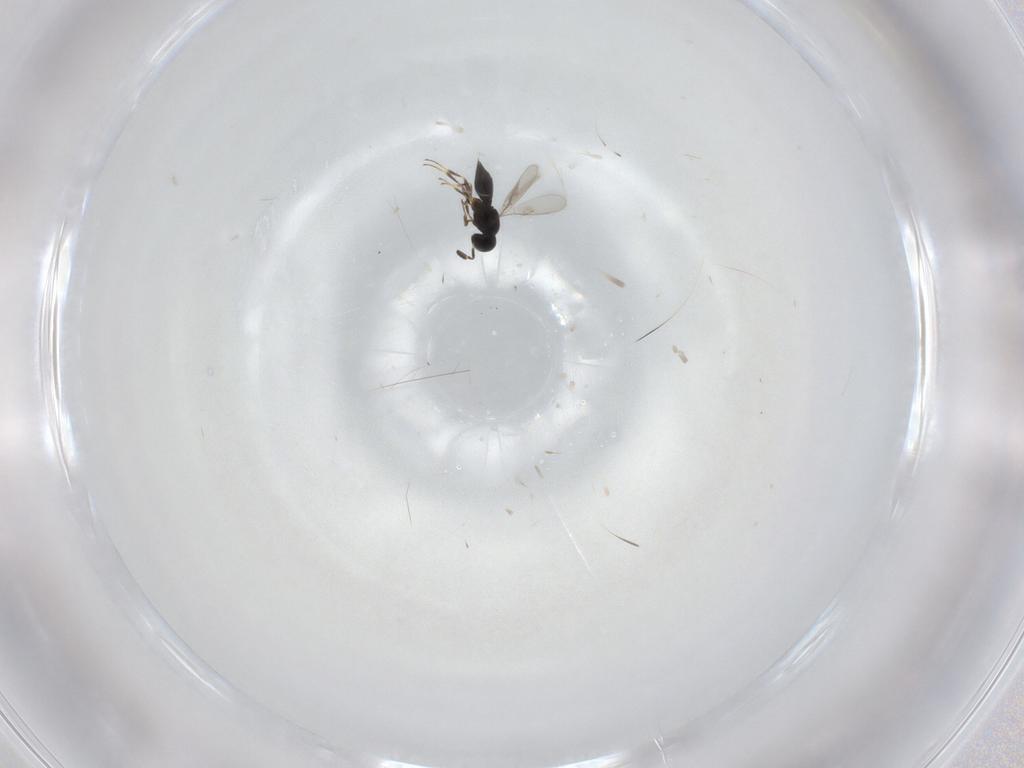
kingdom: Animalia
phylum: Arthropoda
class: Insecta
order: Hymenoptera
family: Scelionidae
